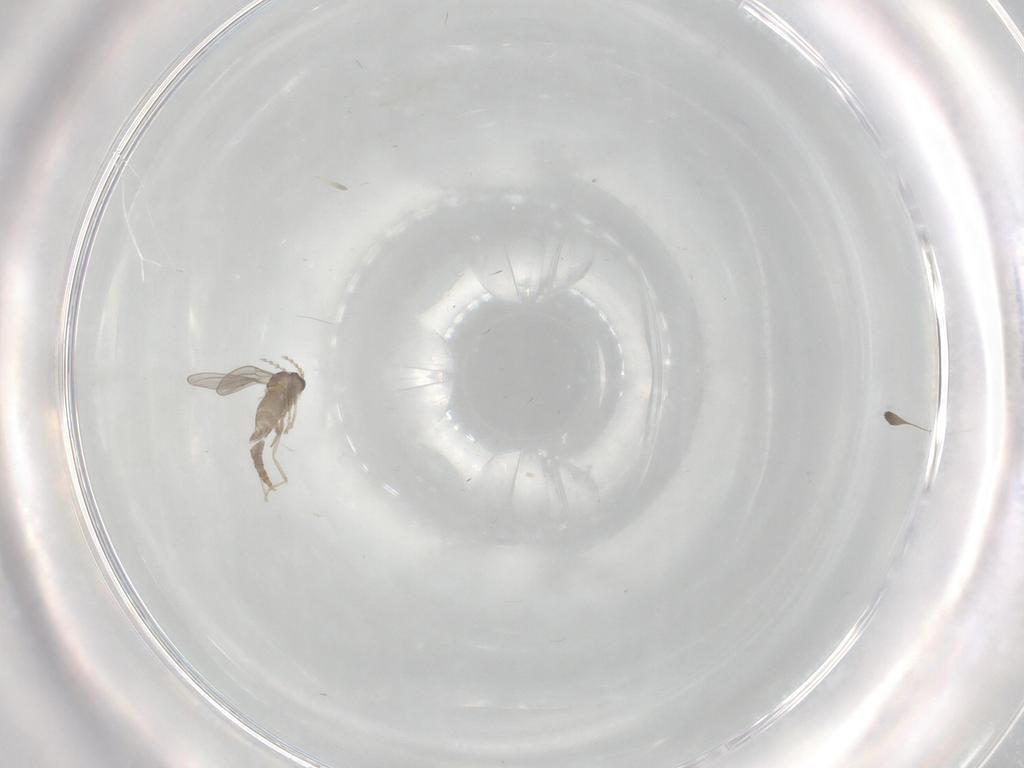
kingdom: Animalia
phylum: Arthropoda
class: Insecta
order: Diptera
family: Cecidomyiidae
